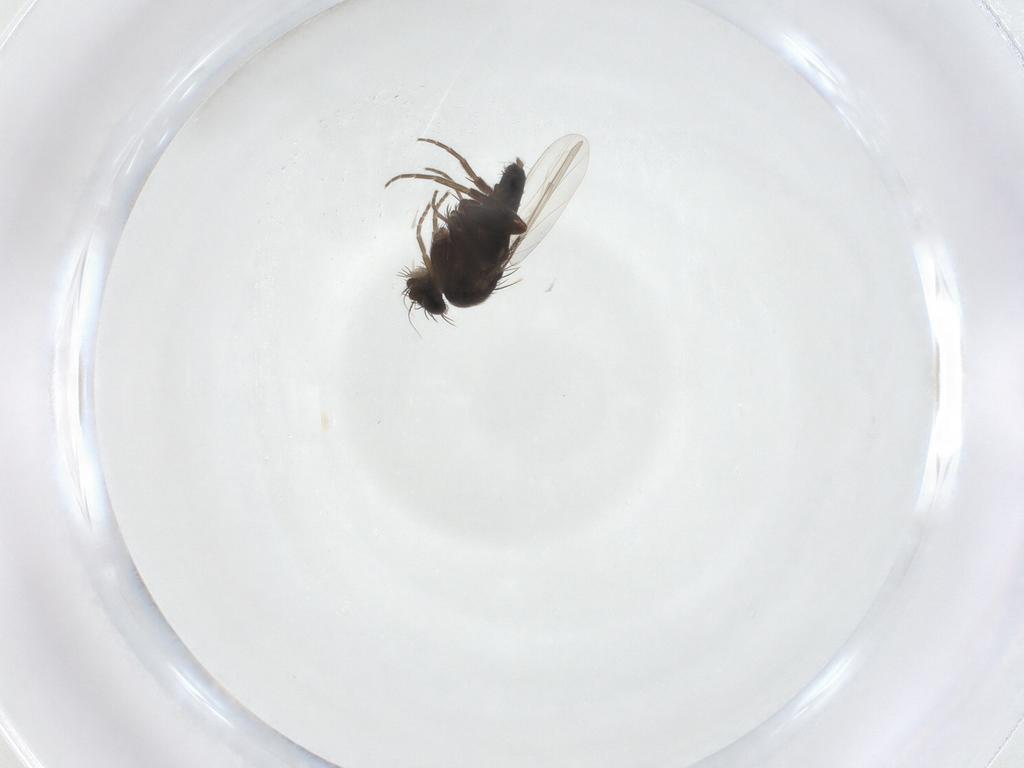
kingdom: Animalia
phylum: Arthropoda
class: Insecta
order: Diptera
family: Phoridae
